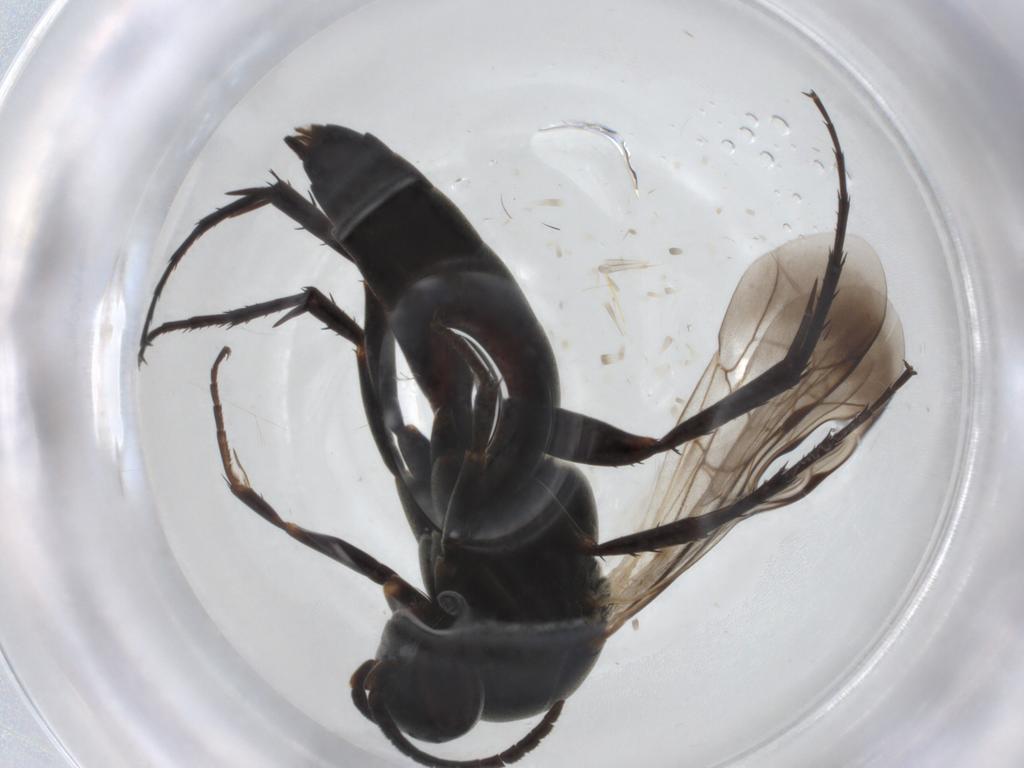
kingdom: Animalia
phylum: Arthropoda
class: Insecta
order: Hymenoptera
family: Pompilidae
